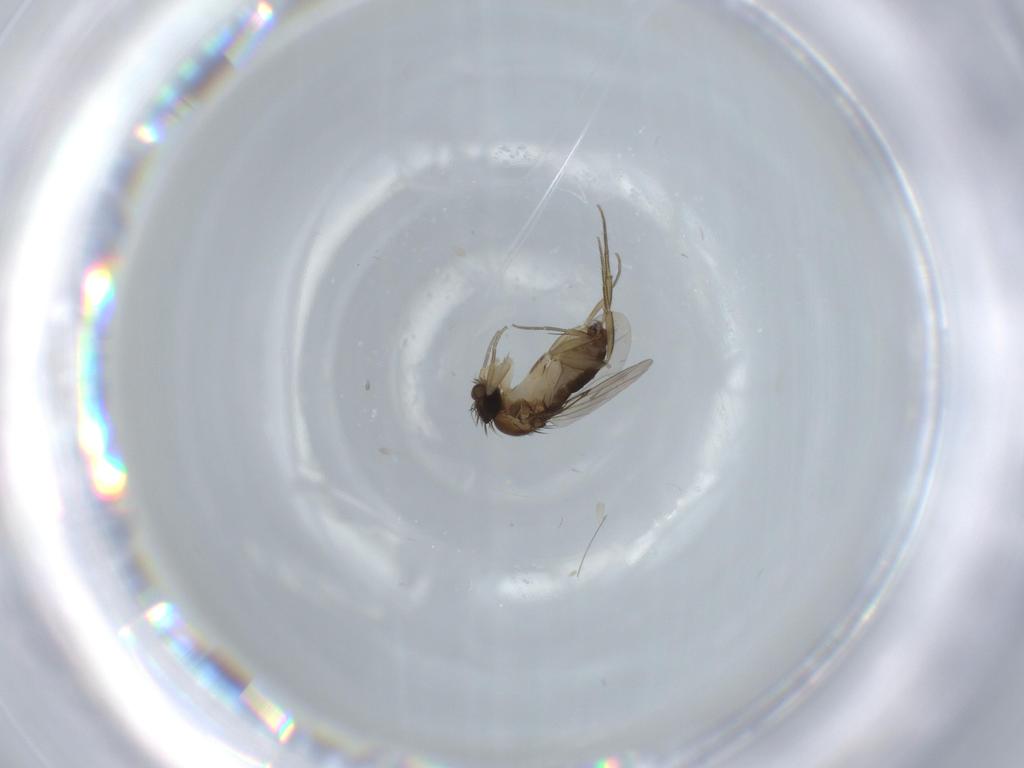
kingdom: Animalia
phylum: Arthropoda
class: Insecta
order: Diptera
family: Phoridae
